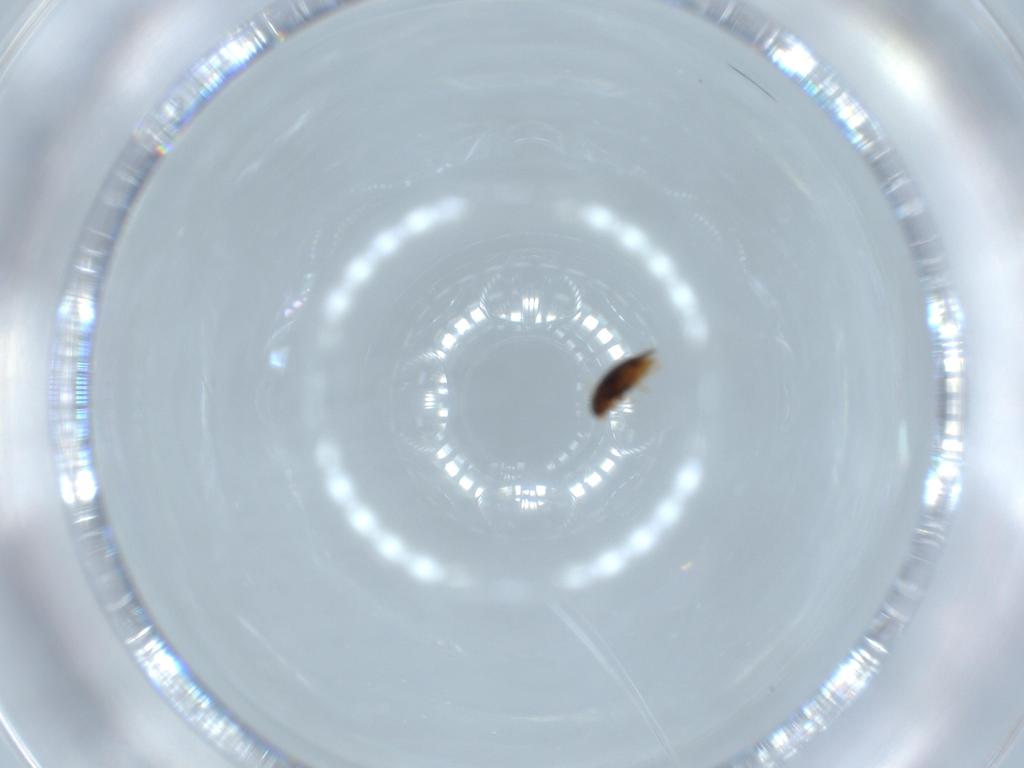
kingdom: Animalia
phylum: Arthropoda
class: Insecta
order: Coleoptera
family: Ptiliidae
